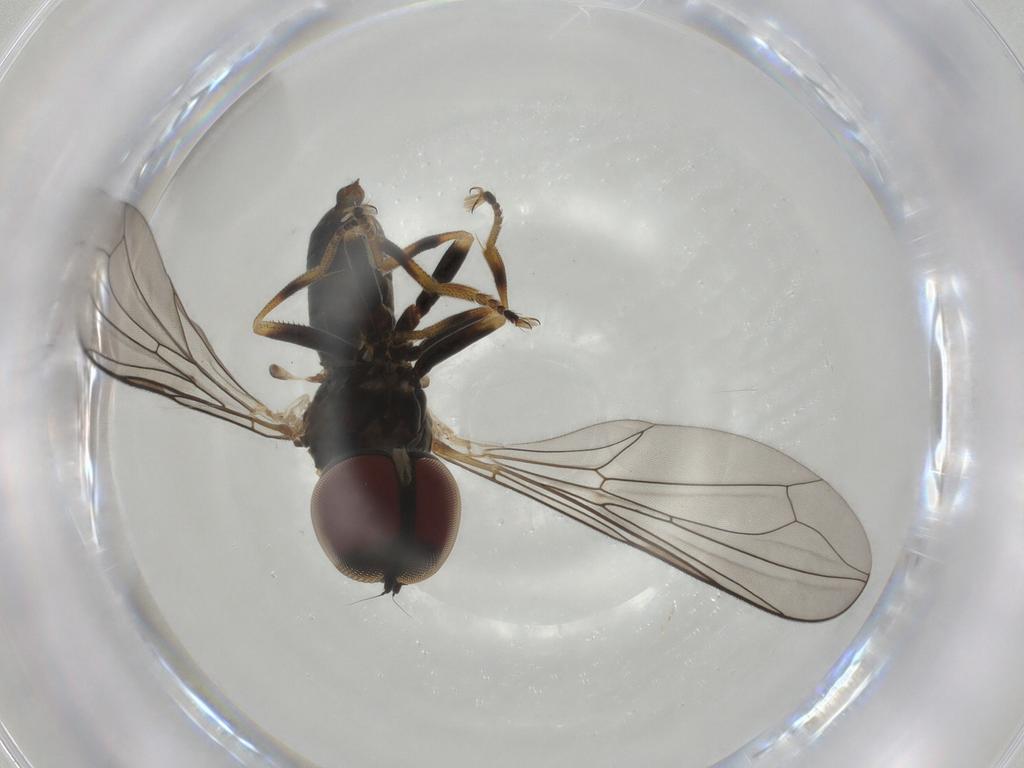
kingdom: Animalia
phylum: Arthropoda
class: Insecta
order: Diptera
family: Pipunculidae
